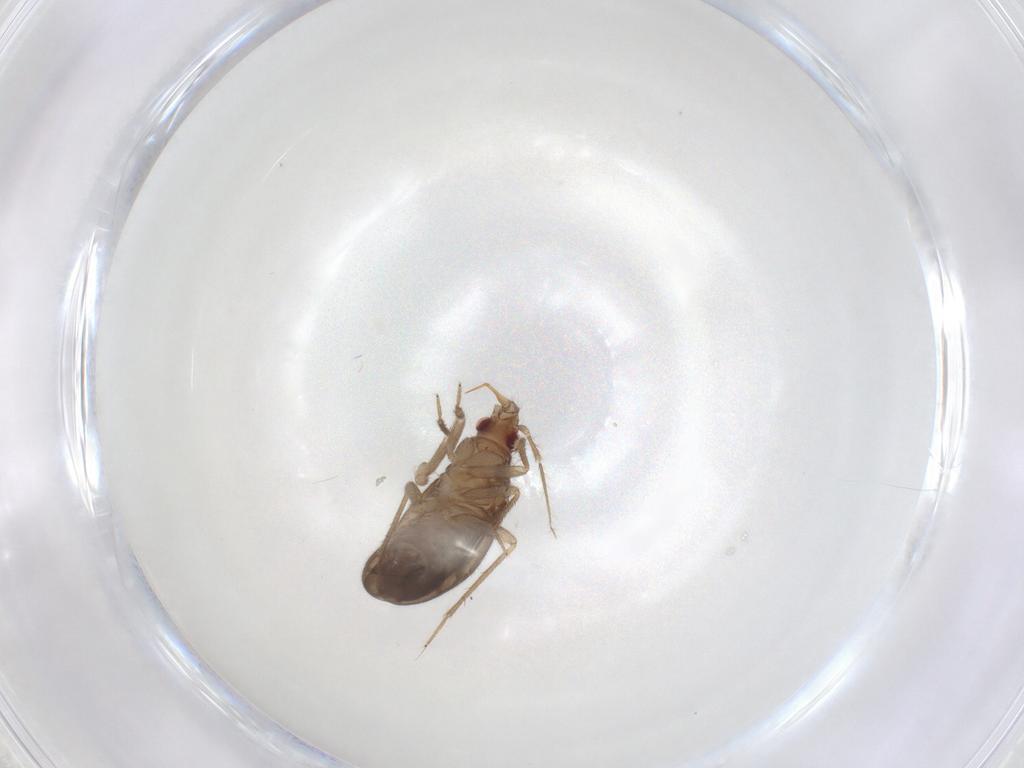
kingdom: Animalia
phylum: Arthropoda
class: Insecta
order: Hemiptera
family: Ceratocombidae
